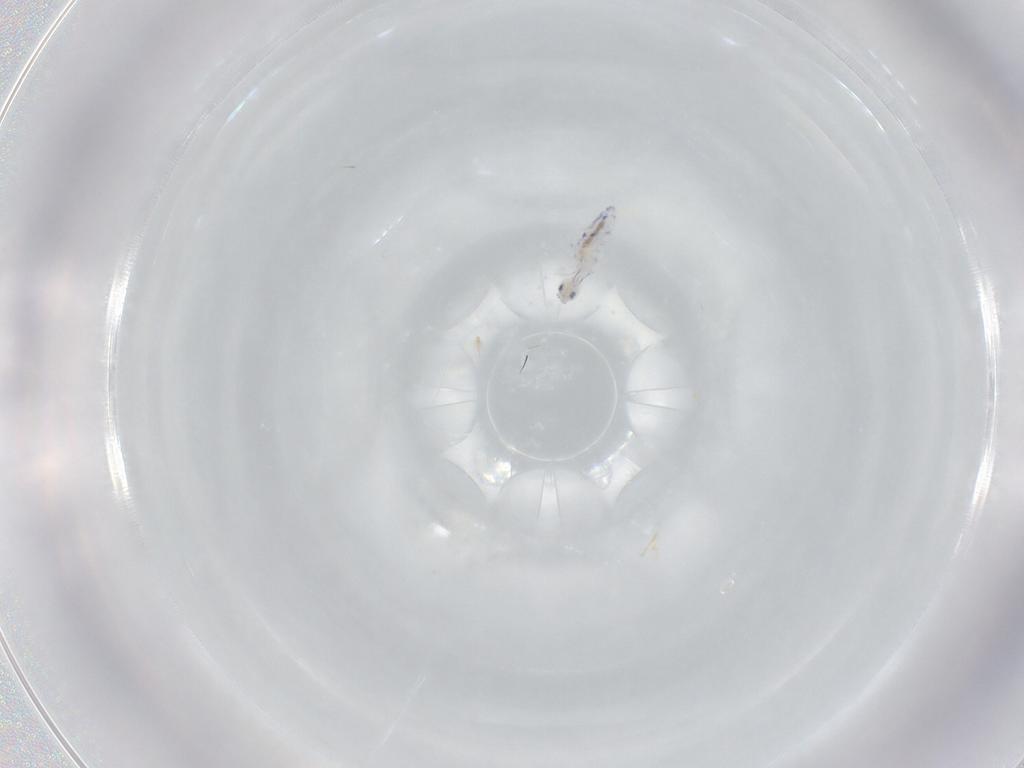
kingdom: Animalia
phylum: Arthropoda
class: Collembola
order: Entomobryomorpha
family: Entomobryidae
